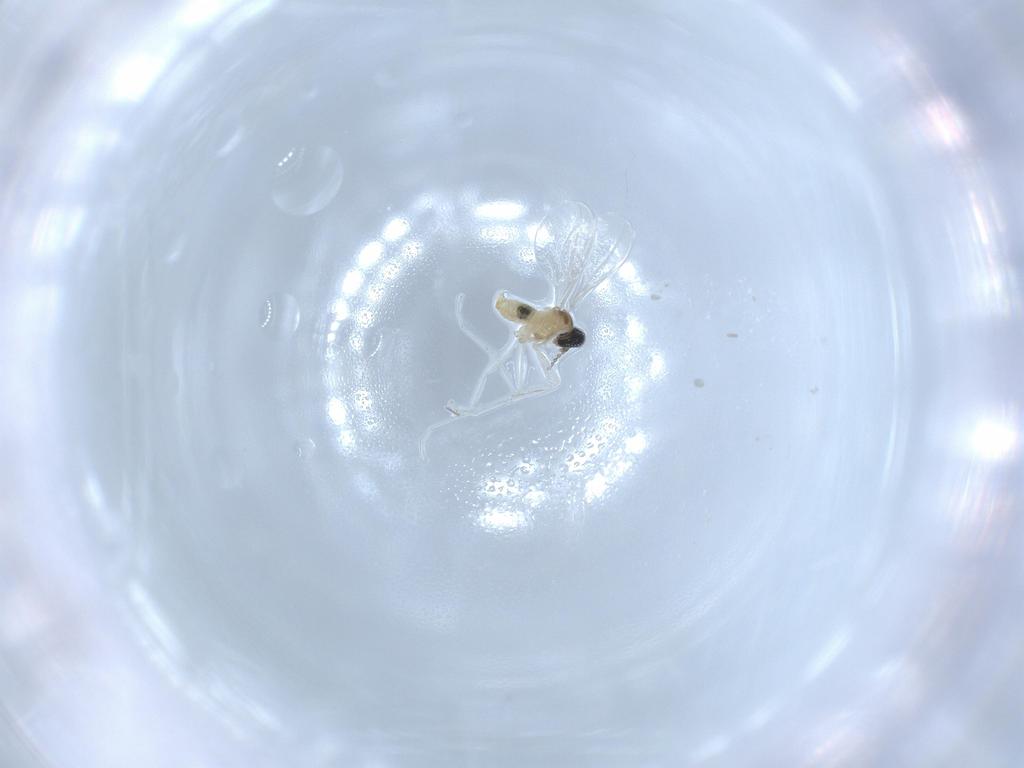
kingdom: Animalia
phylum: Arthropoda
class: Insecta
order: Diptera
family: Cecidomyiidae
